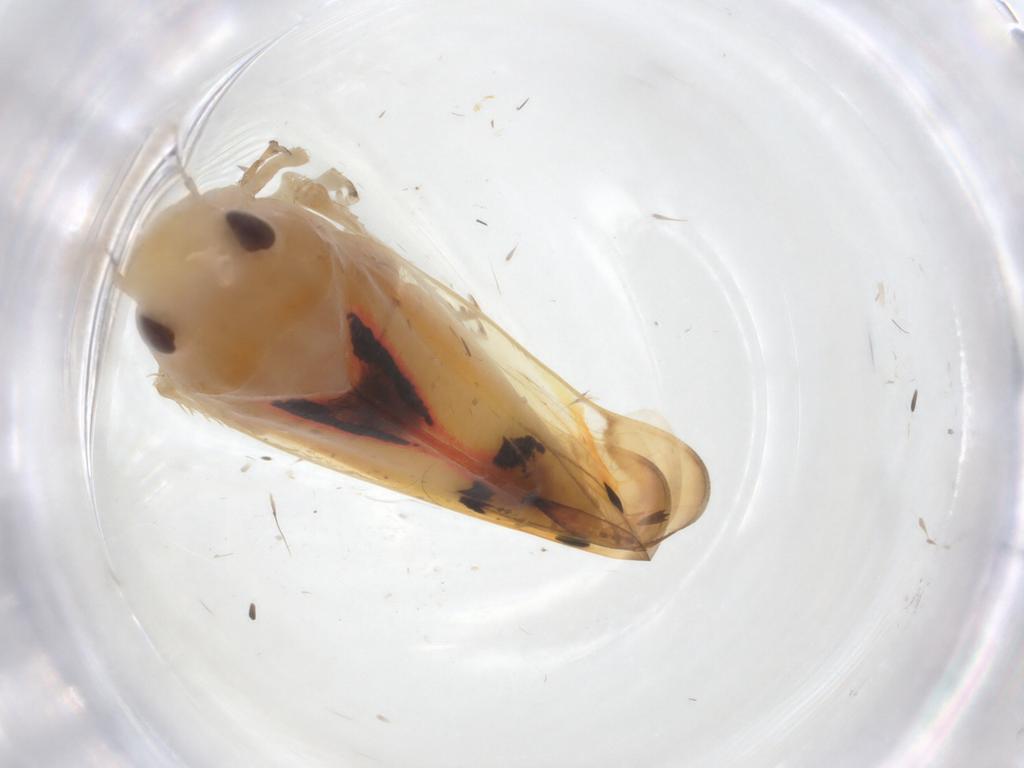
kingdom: Animalia
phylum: Arthropoda
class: Insecta
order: Hemiptera
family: Cicadellidae
